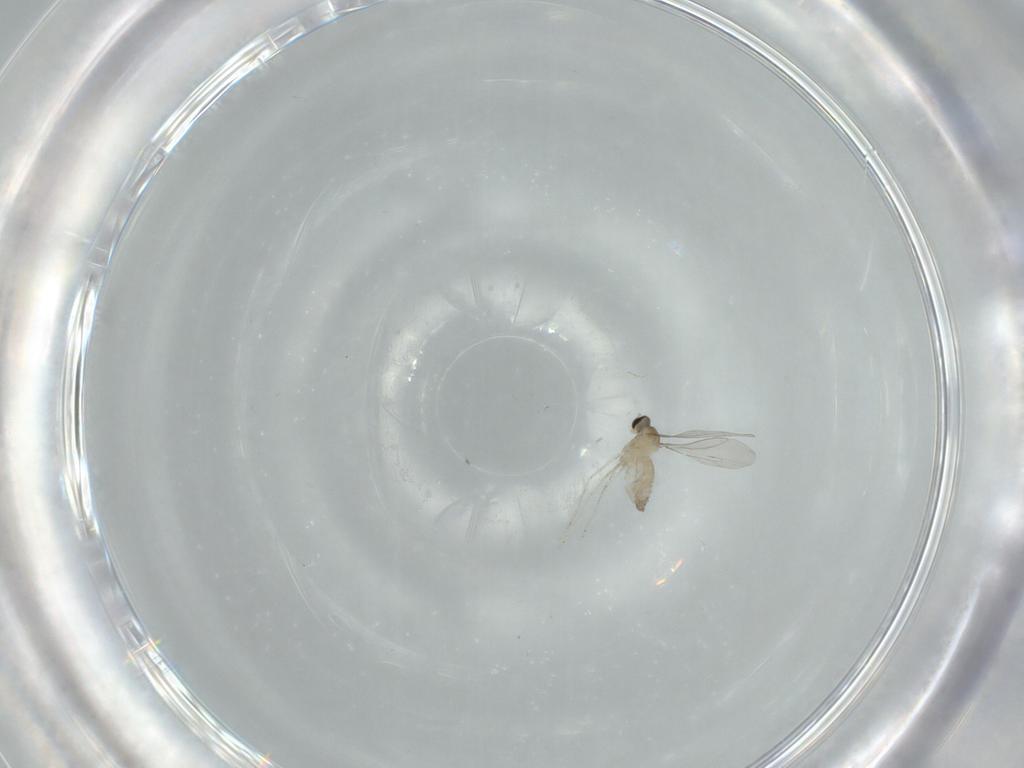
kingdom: Animalia
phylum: Arthropoda
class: Insecta
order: Diptera
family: Cecidomyiidae
